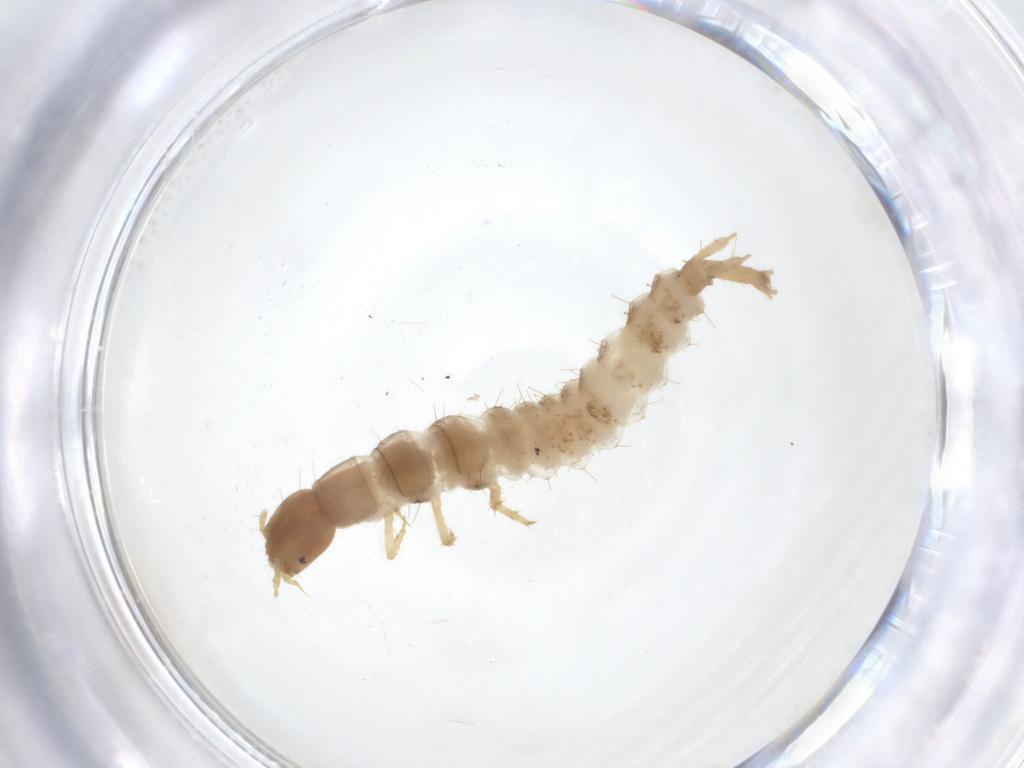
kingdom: Animalia
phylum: Arthropoda
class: Insecta
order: Coleoptera
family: Staphylinidae
